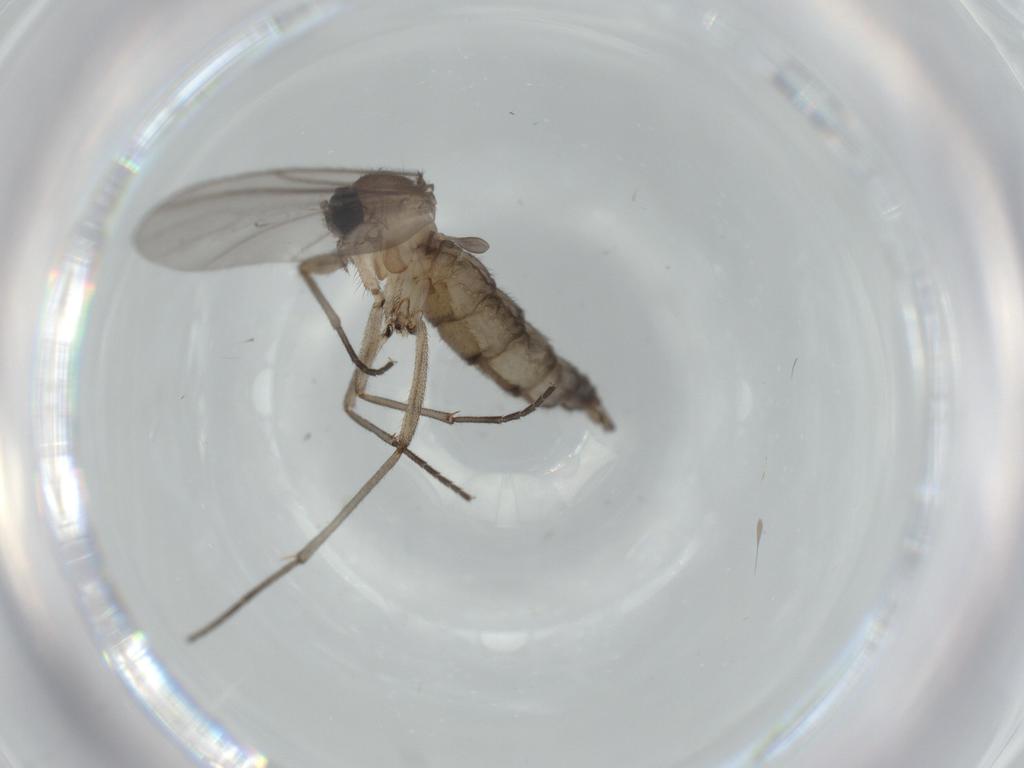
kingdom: Animalia
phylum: Arthropoda
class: Insecta
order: Diptera
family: Sciaridae
